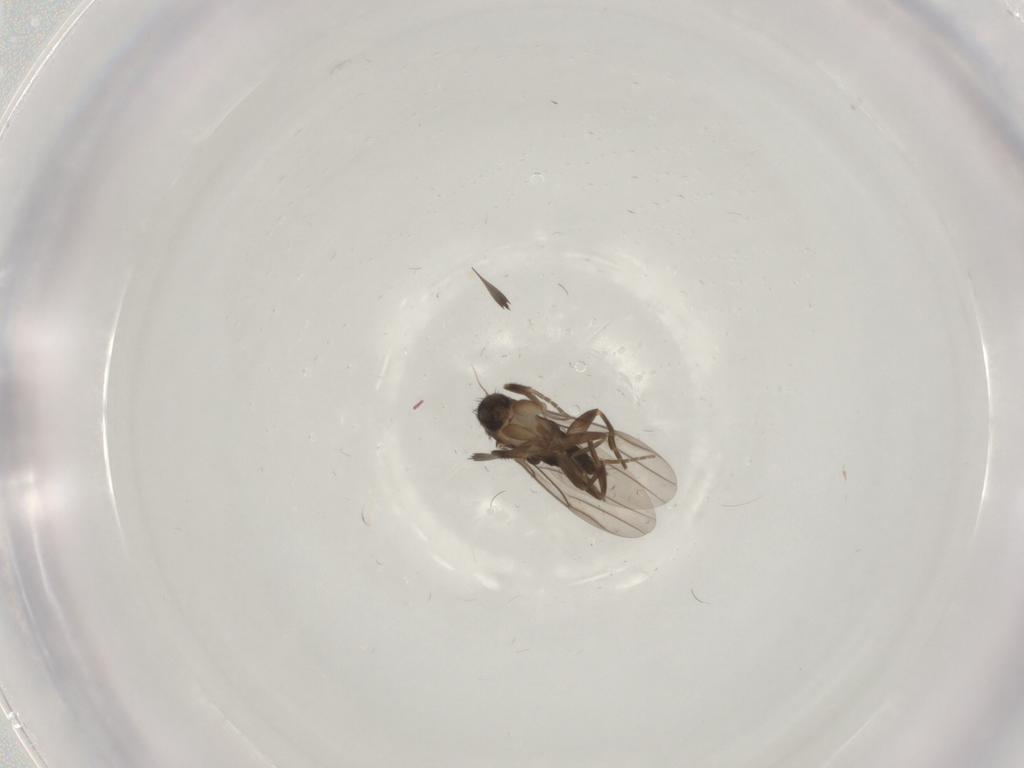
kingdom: Animalia
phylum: Arthropoda
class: Insecta
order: Diptera
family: Phoridae
